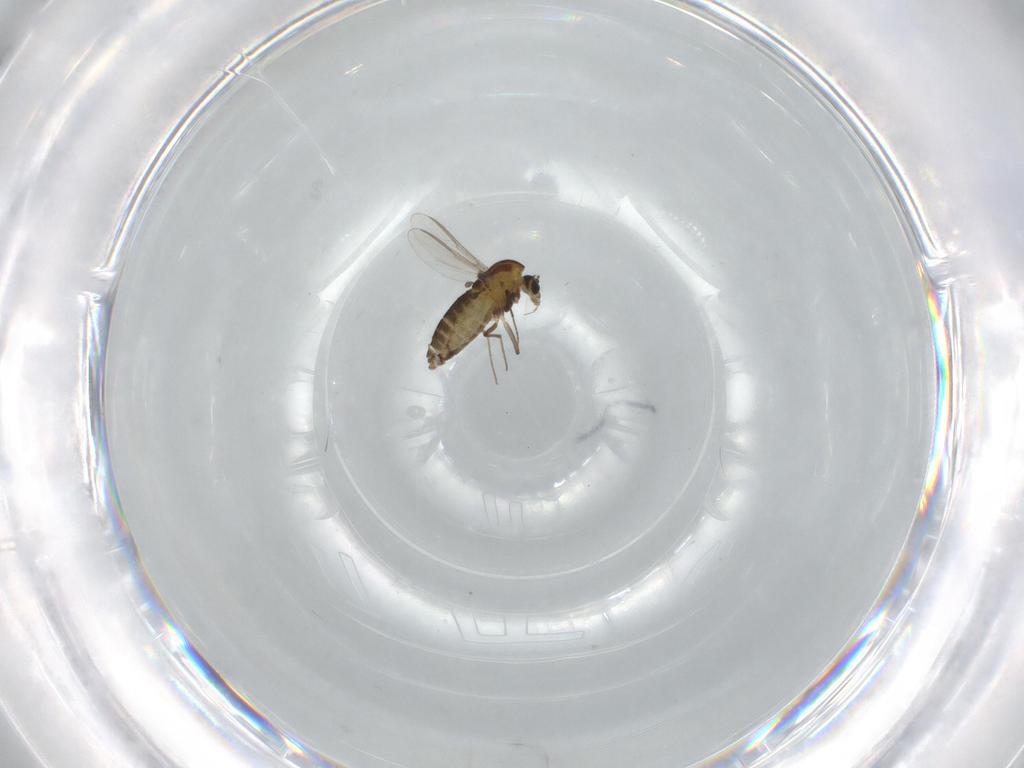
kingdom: Animalia
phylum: Arthropoda
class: Insecta
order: Diptera
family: Chironomidae
